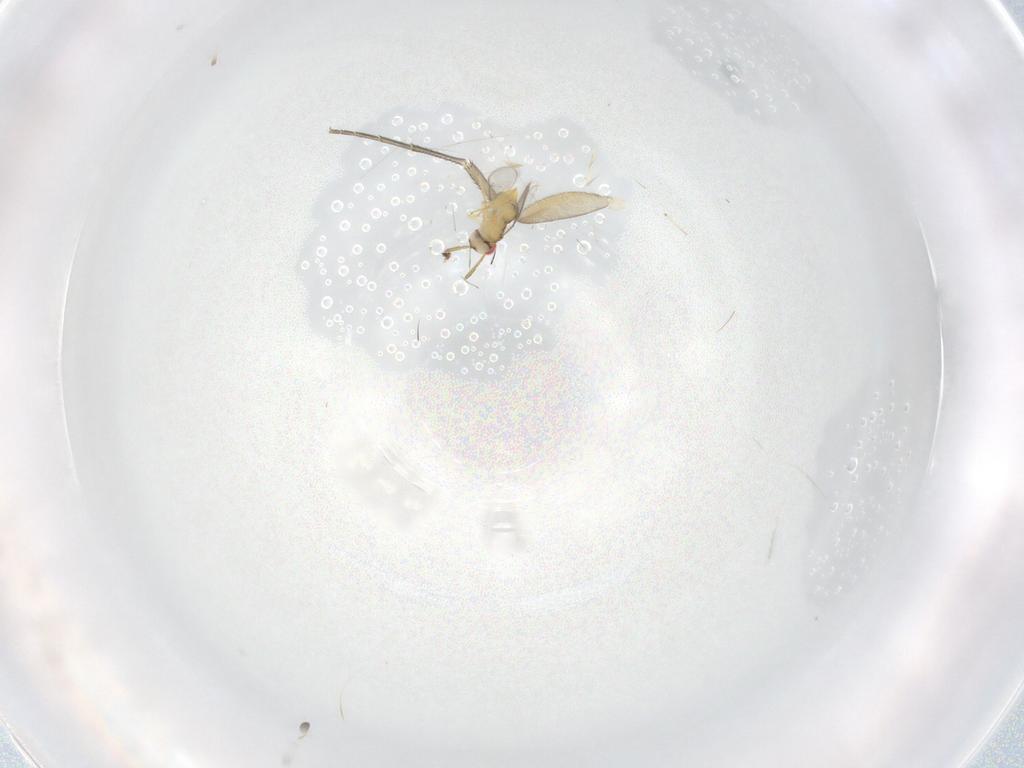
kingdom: Animalia
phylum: Arthropoda
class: Insecta
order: Hymenoptera
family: Aphelinidae
